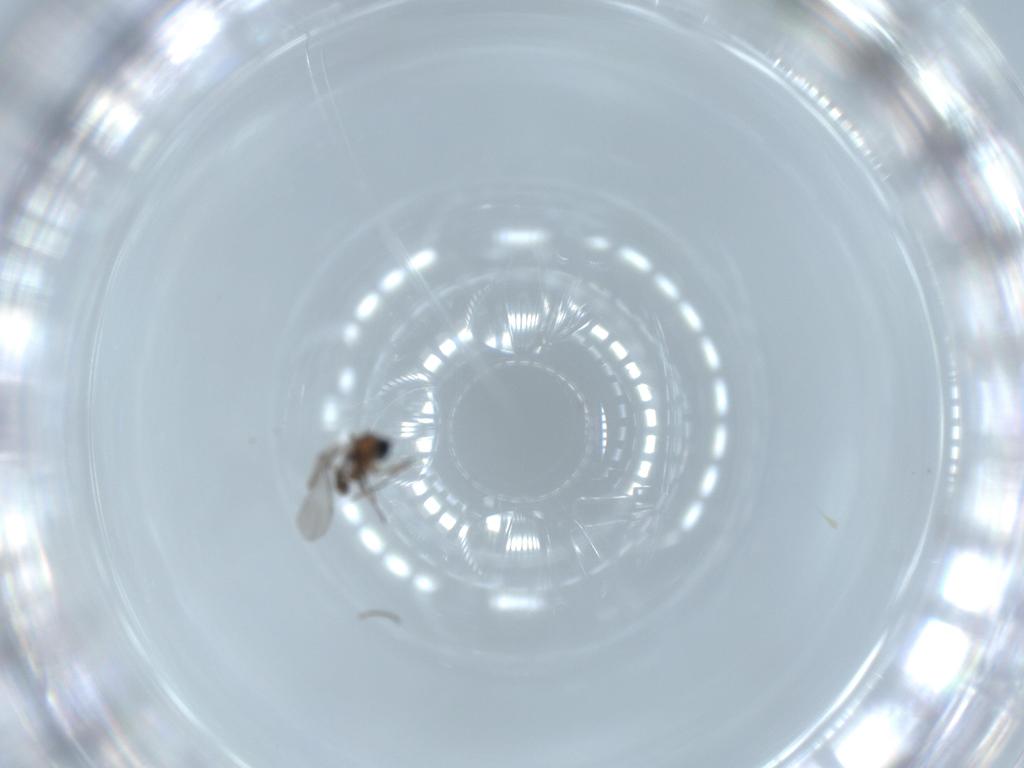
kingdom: Animalia
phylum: Arthropoda
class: Insecta
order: Diptera
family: Sciaridae
